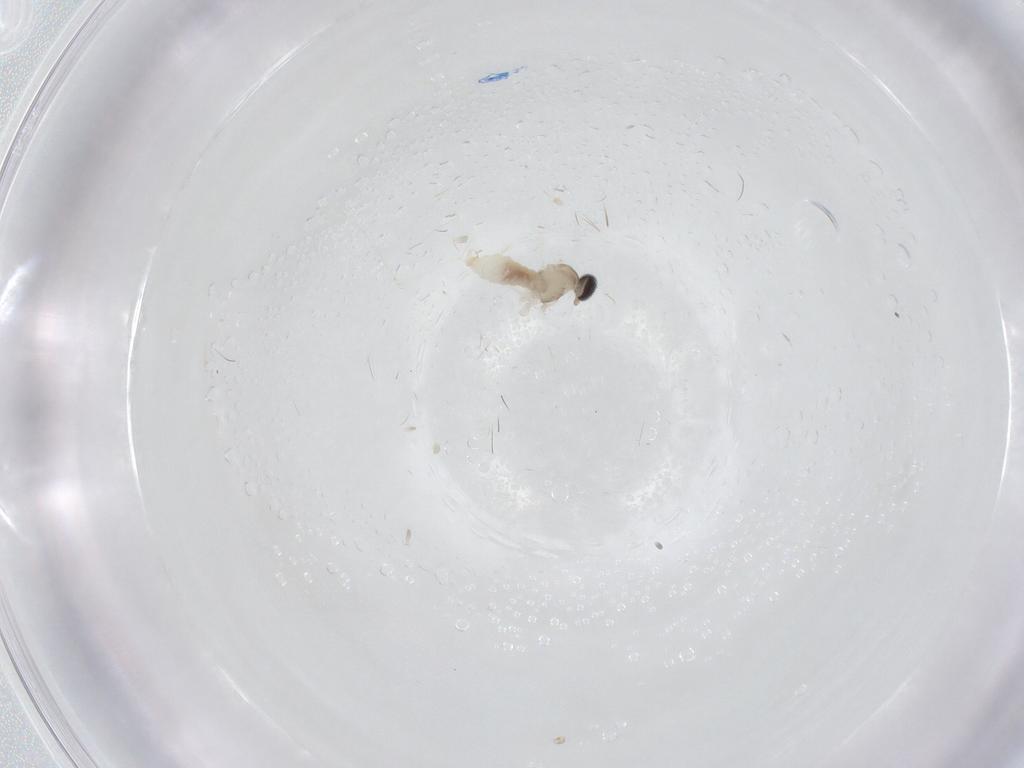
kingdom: Animalia
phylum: Arthropoda
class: Insecta
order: Diptera
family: Cecidomyiidae
